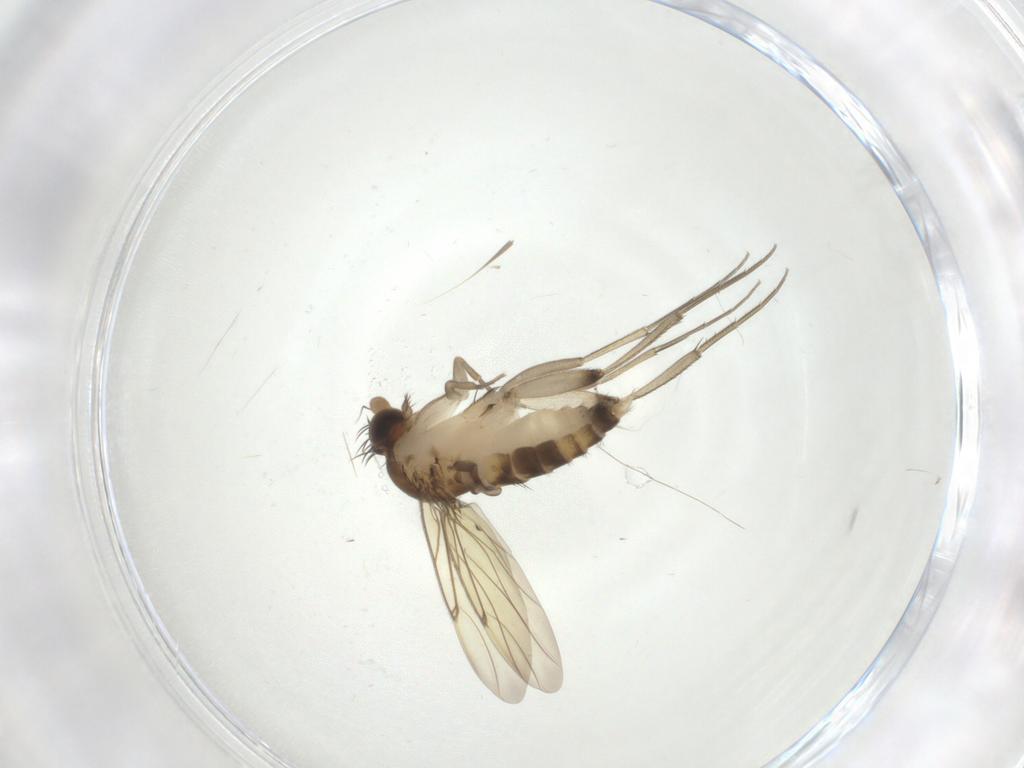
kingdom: Animalia
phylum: Arthropoda
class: Insecta
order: Diptera
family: Phoridae
